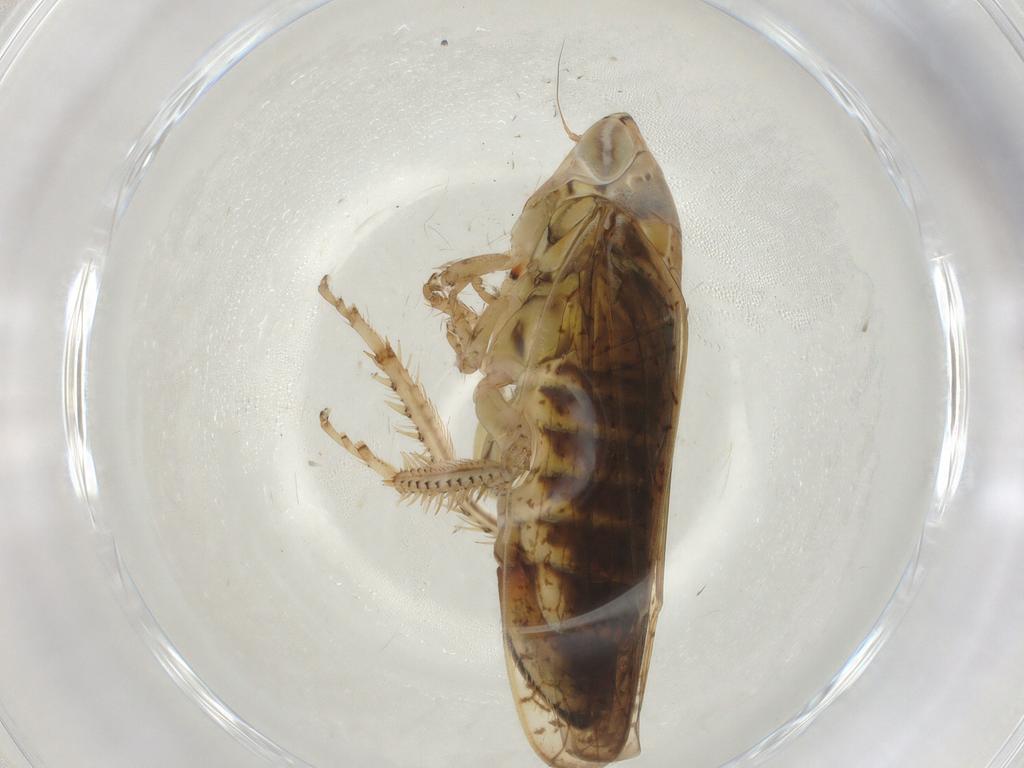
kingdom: Animalia
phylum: Arthropoda
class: Insecta
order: Hemiptera
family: Cicadellidae
